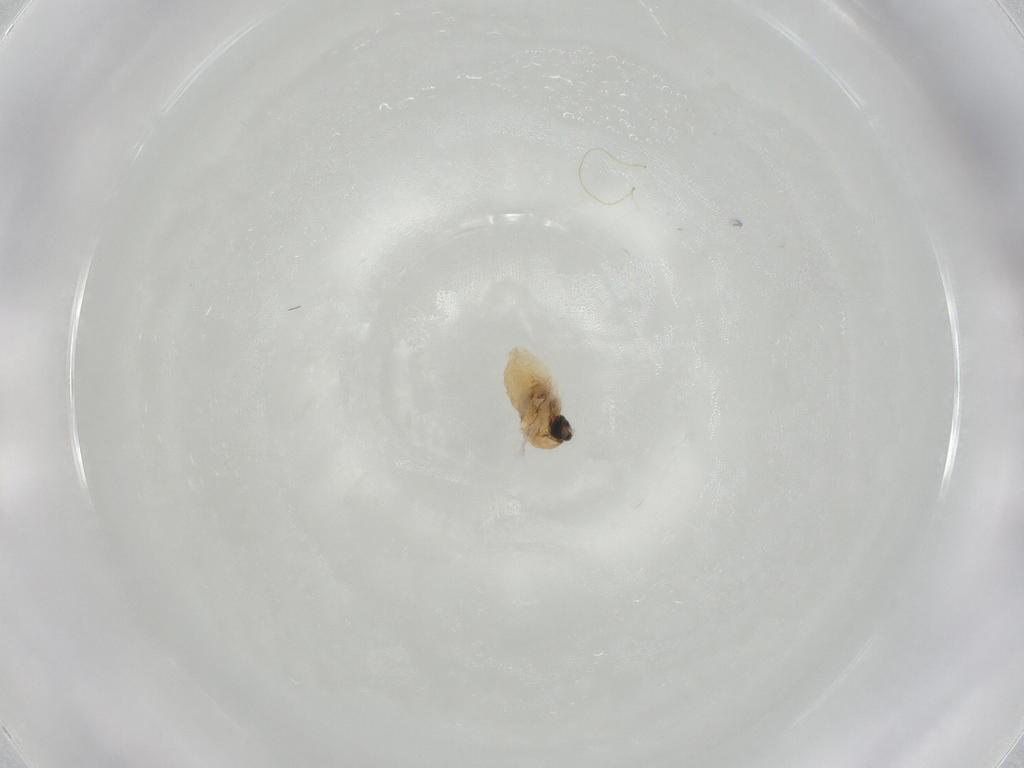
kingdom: Animalia
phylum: Arthropoda
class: Insecta
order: Diptera
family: Cecidomyiidae
